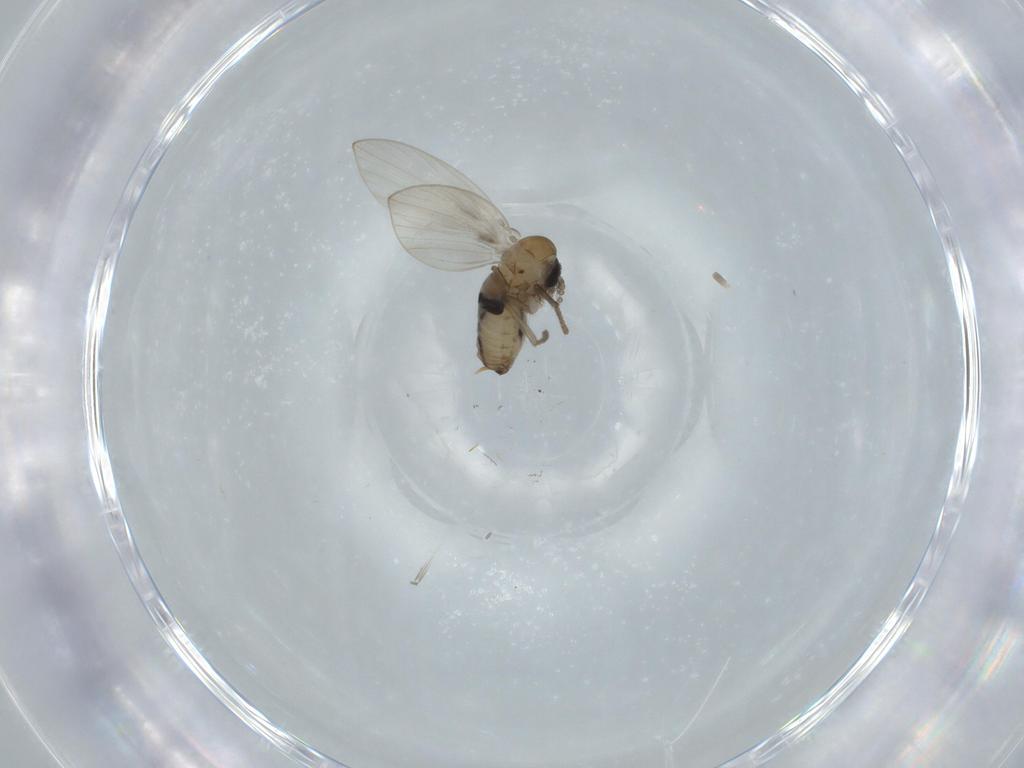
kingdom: Animalia
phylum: Arthropoda
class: Insecta
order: Diptera
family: Psychodidae
